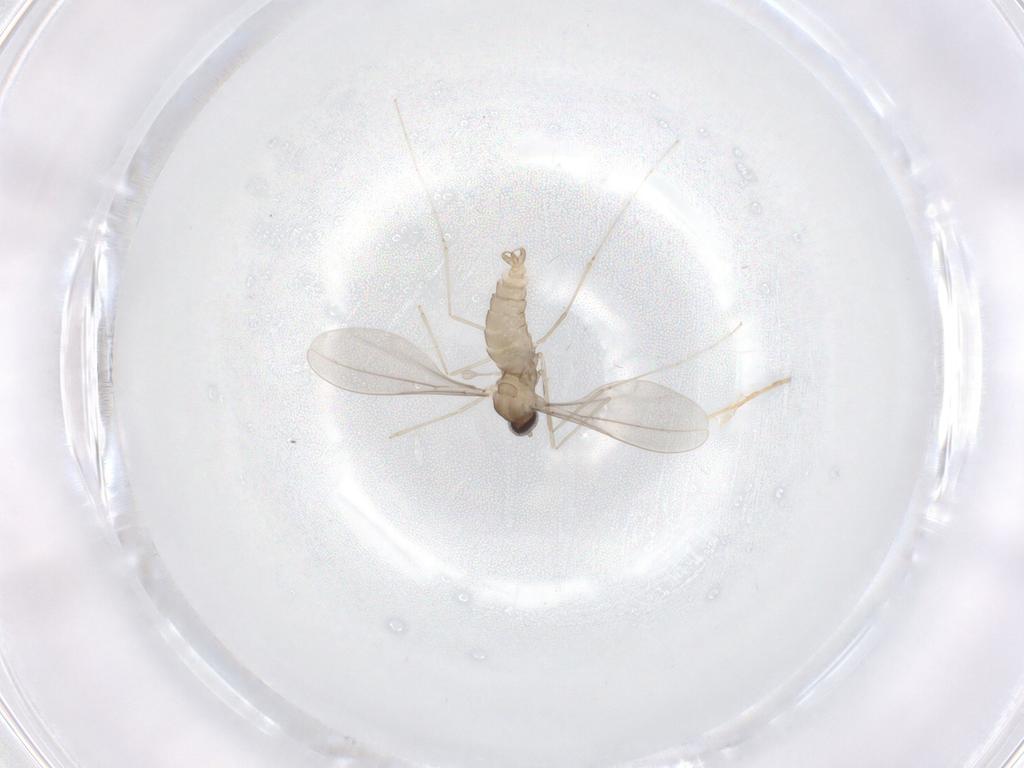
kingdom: Animalia
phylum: Arthropoda
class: Insecta
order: Diptera
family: Cecidomyiidae
